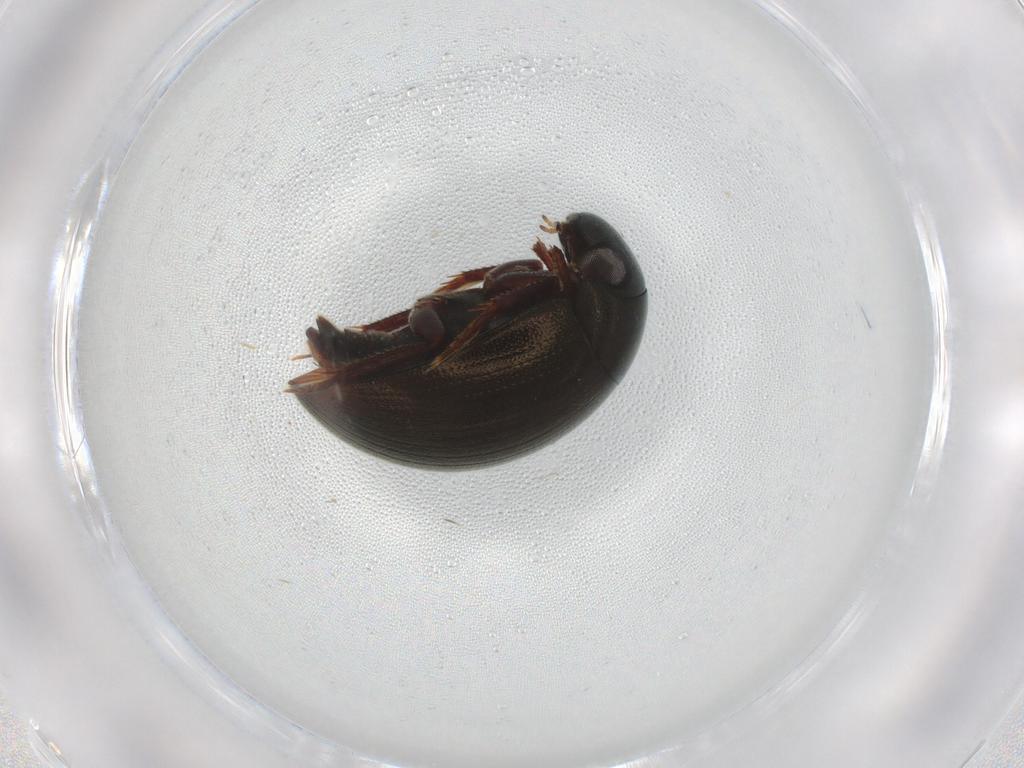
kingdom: Animalia
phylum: Arthropoda
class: Insecta
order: Coleoptera
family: Hydrophilidae
